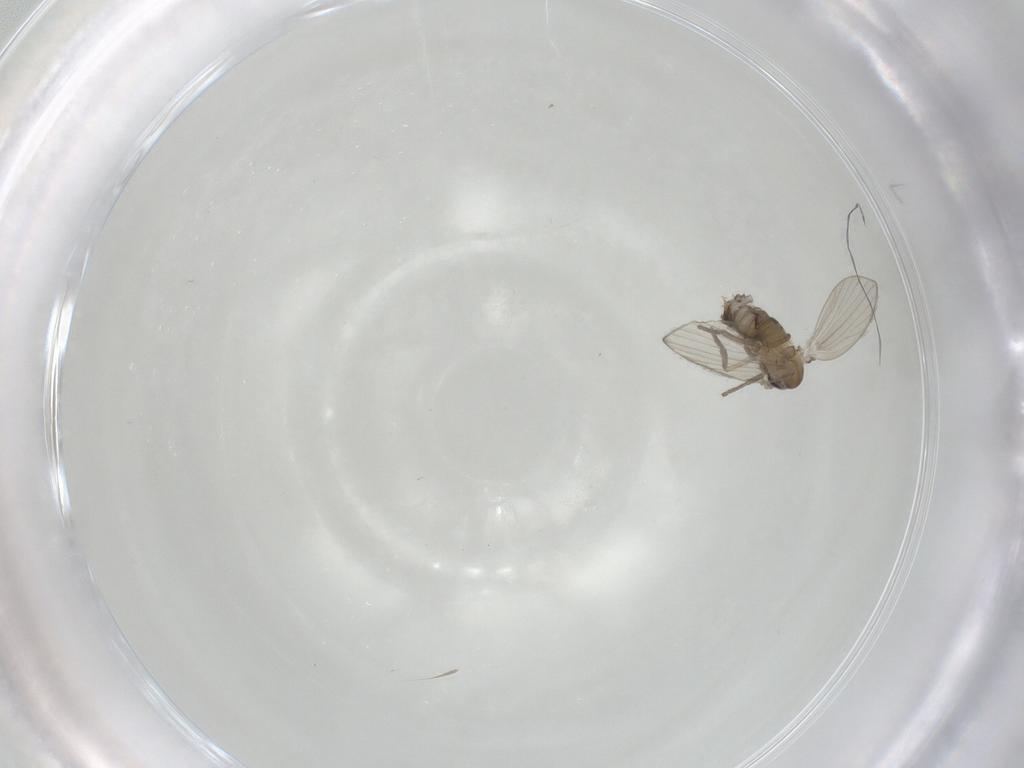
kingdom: Animalia
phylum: Arthropoda
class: Insecta
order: Diptera
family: Psychodidae
